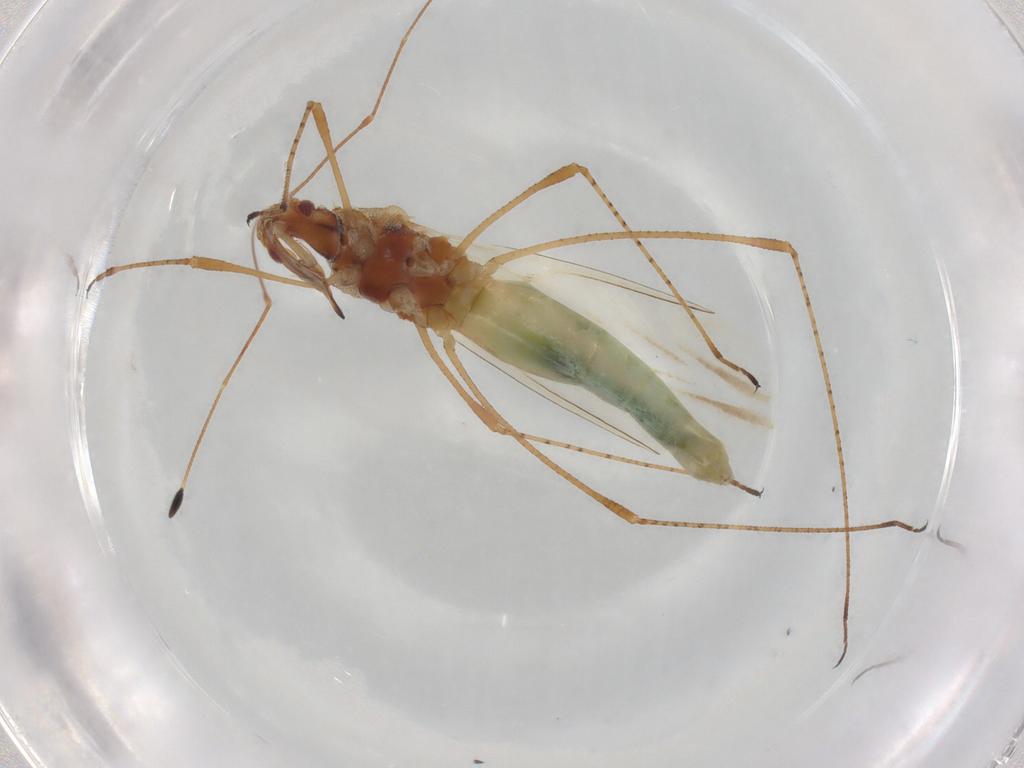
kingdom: Animalia
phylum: Arthropoda
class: Insecta
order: Hemiptera
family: Cymidae
